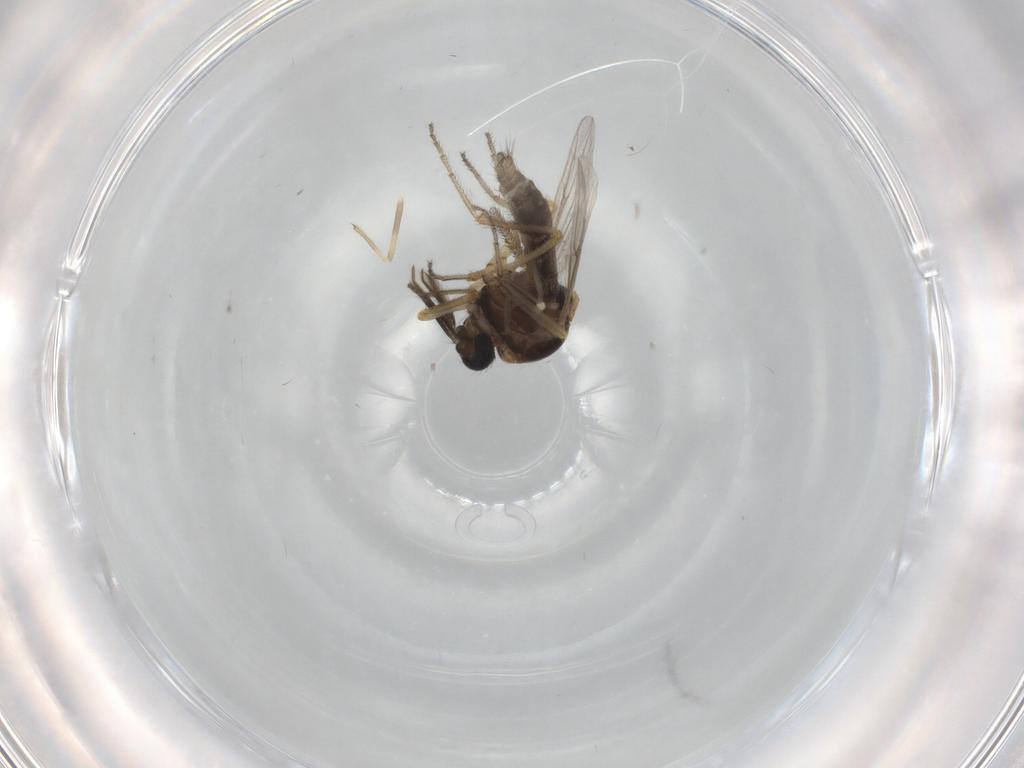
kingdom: Animalia
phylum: Arthropoda
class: Insecta
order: Diptera
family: Ceratopogonidae
